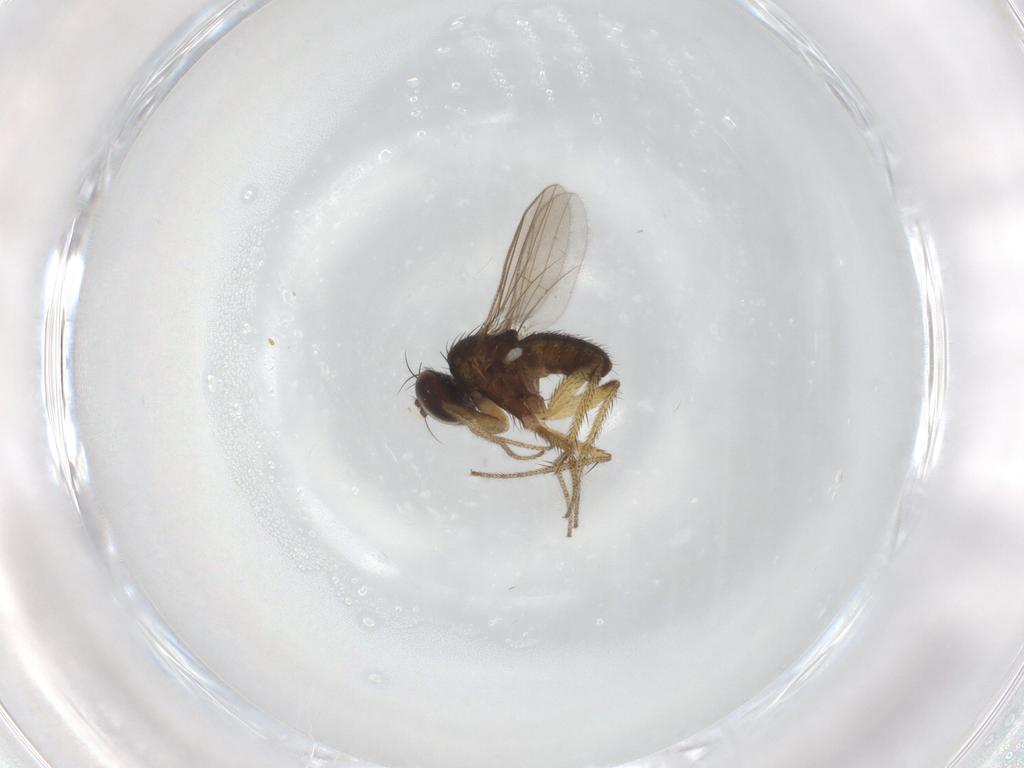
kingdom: Animalia
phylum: Arthropoda
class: Insecta
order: Diptera
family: Dolichopodidae
